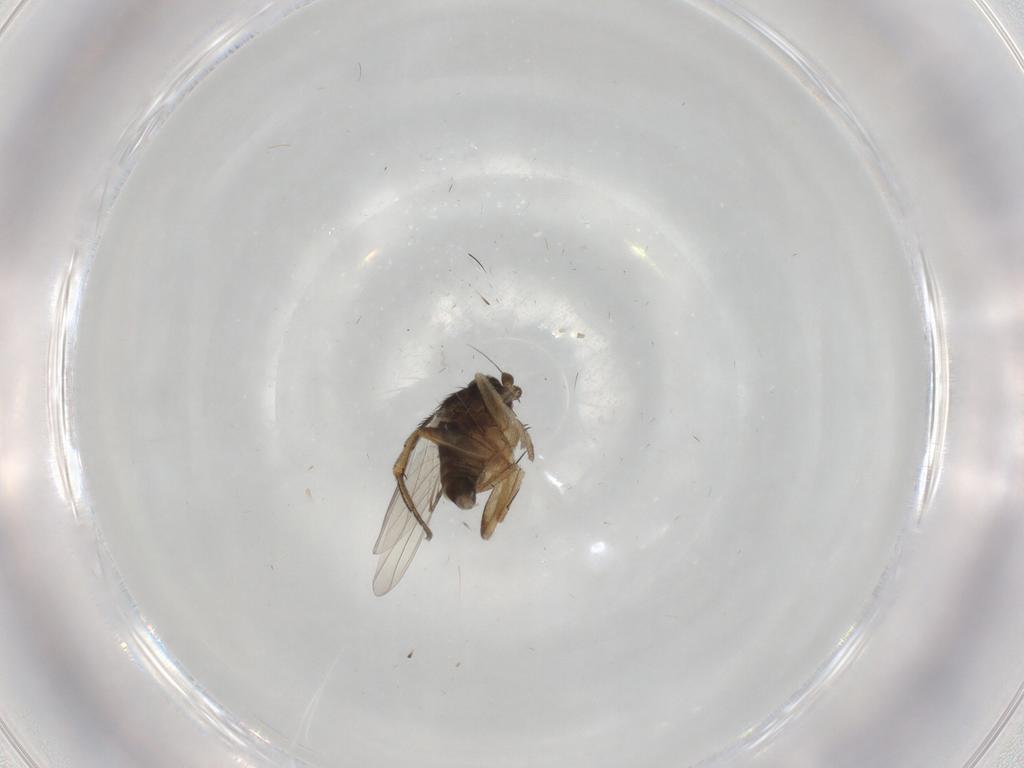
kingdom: Animalia
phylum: Arthropoda
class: Insecta
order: Diptera
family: Phoridae
